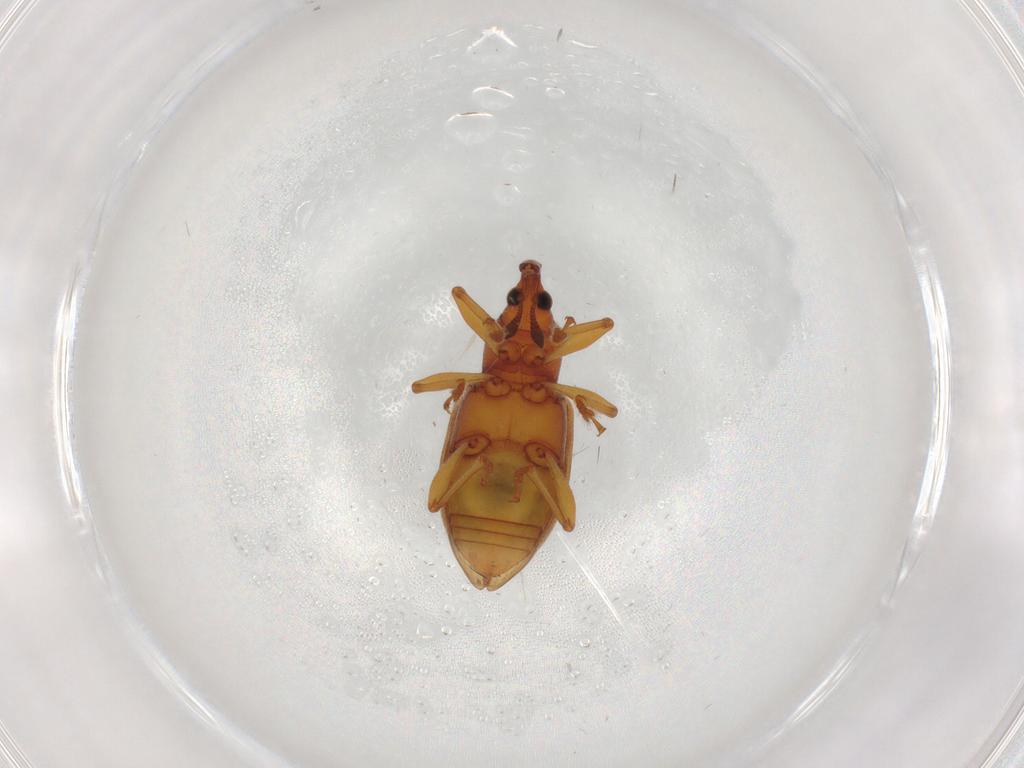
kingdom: Animalia
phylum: Arthropoda
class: Insecta
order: Coleoptera
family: Curculionidae
